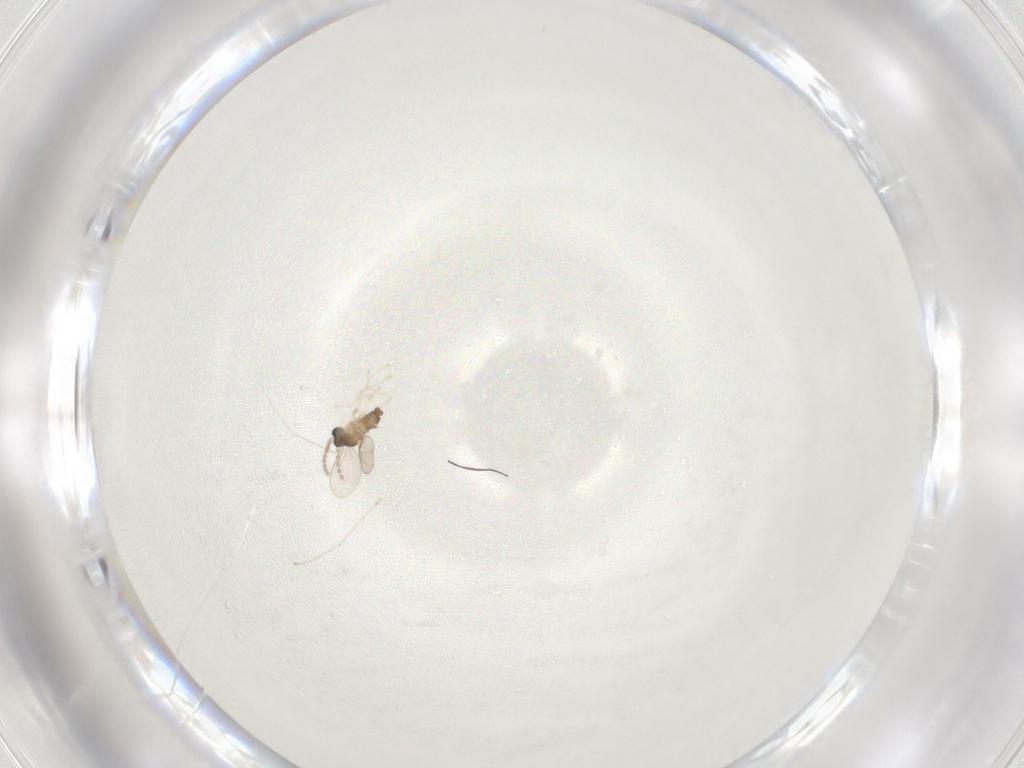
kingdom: Animalia
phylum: Arthropoda
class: Insecta
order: Diptera
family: Cecidomyiidae
